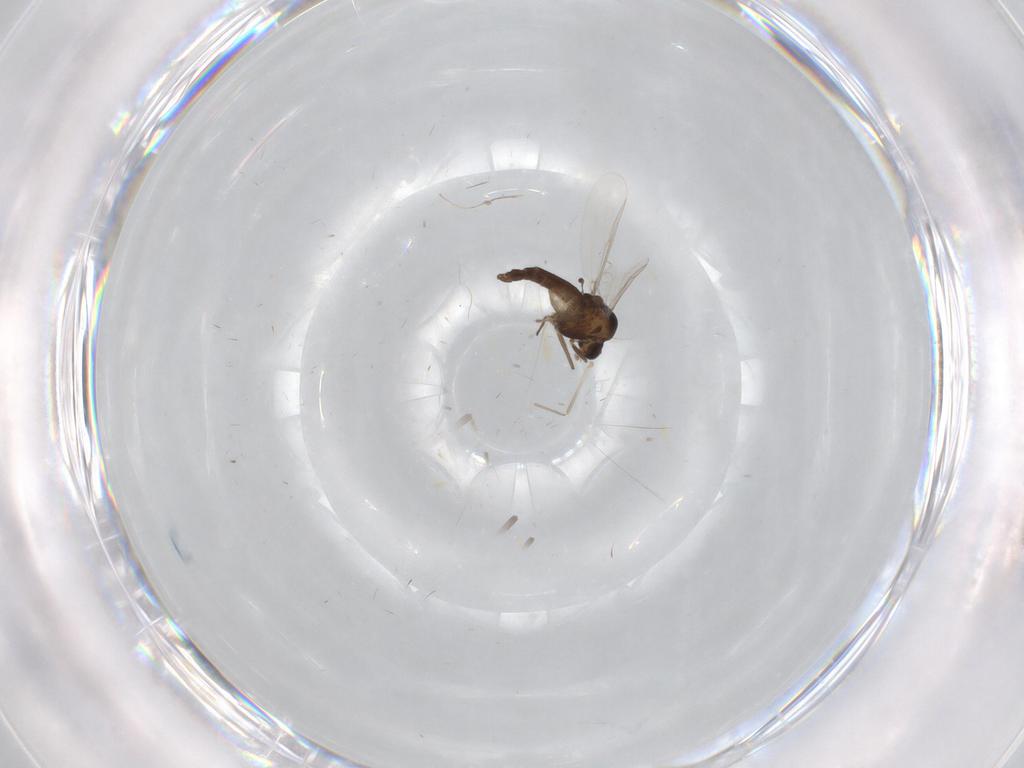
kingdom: Animalia
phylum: Arthropoda
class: Insecta
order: Diptera
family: Chironomidae
